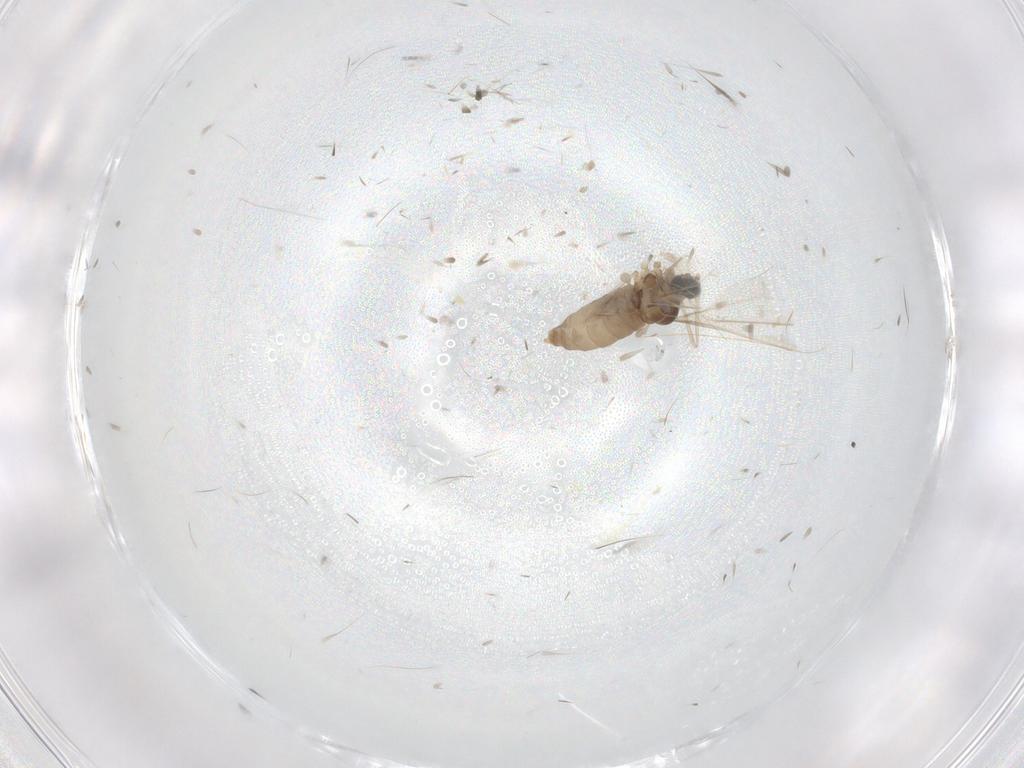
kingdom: Animalia
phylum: Arthropoda
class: Insecta
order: Diptera
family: Cecidomyiidae
